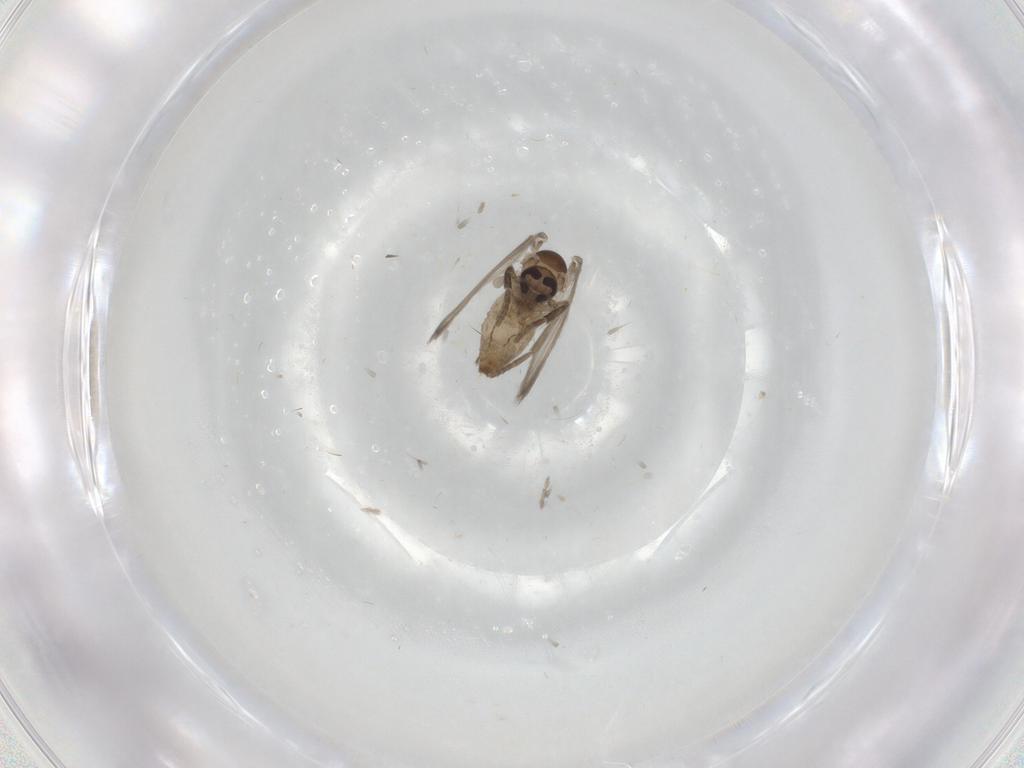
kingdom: Animalia
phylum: Arthropoda
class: Insecta
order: Diptera
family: Psychodidae
